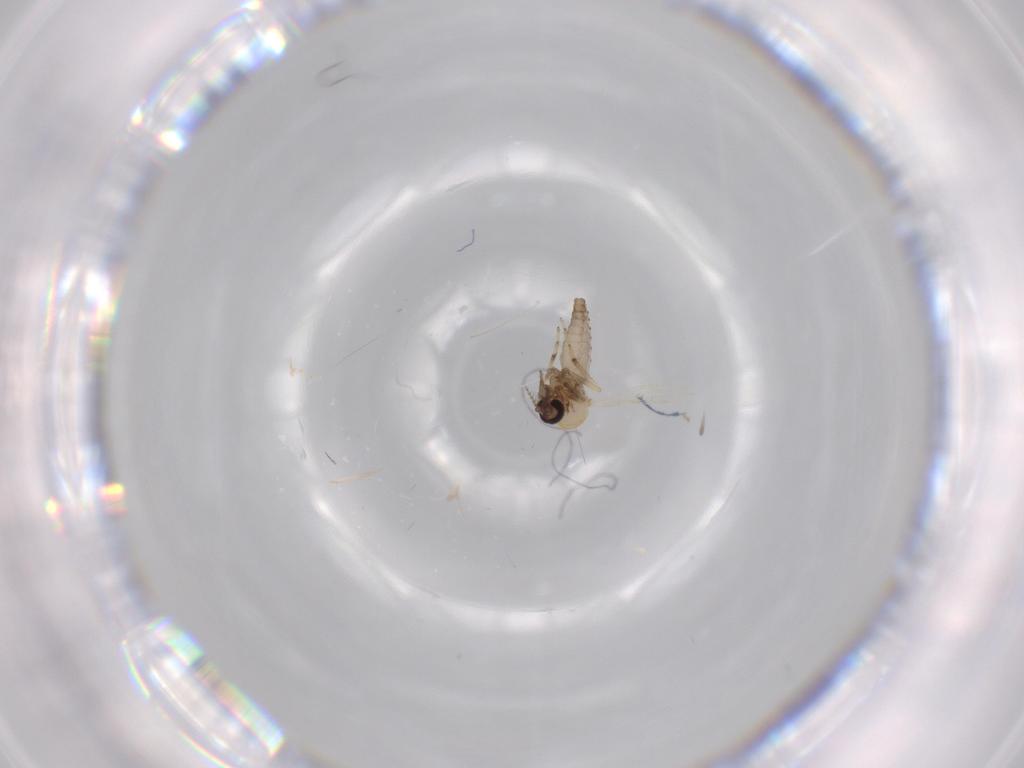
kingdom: Animalia
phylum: Arthropoda
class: Insecta
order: Diptera
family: Ceratopogonidae
